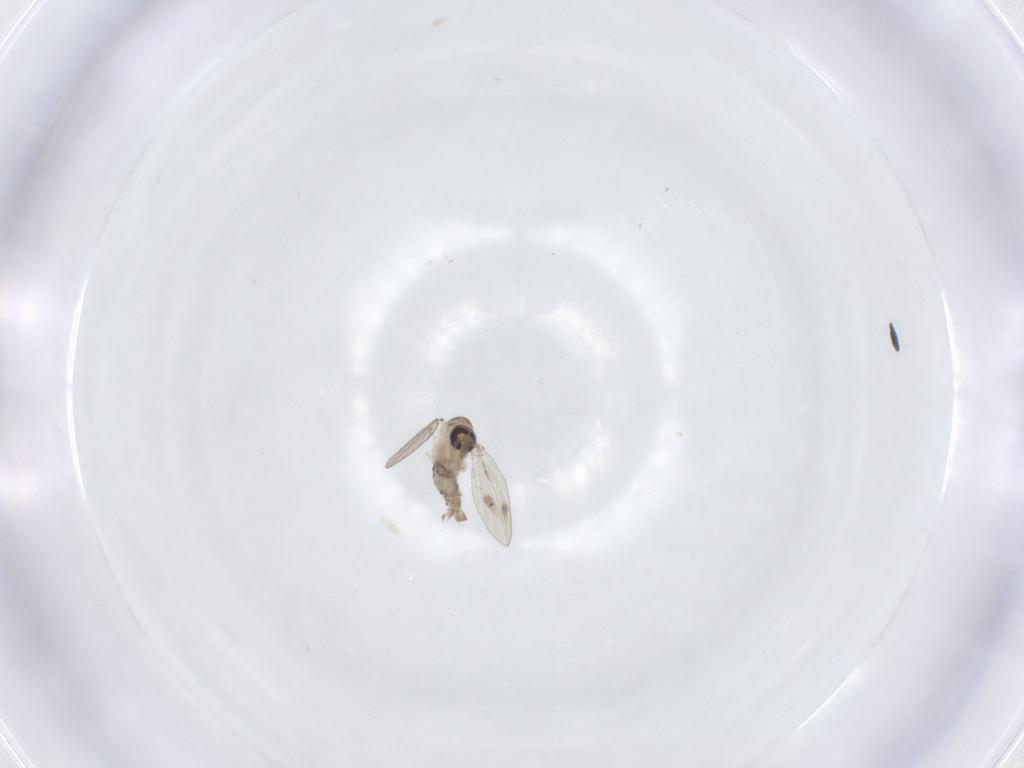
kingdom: Animalia
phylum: Arthropoda
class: Insecta
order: Diptera
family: Psychodidae
